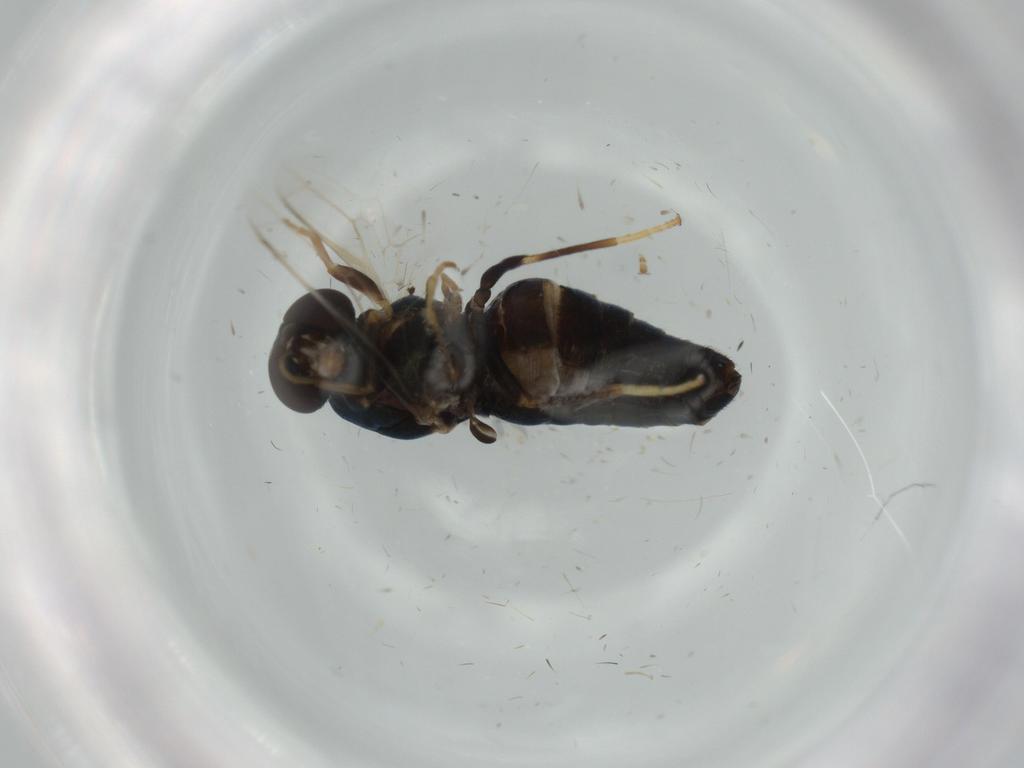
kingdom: Animalia
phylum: Arthropoda
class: Insecta
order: Diptera
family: Scenopinidae
